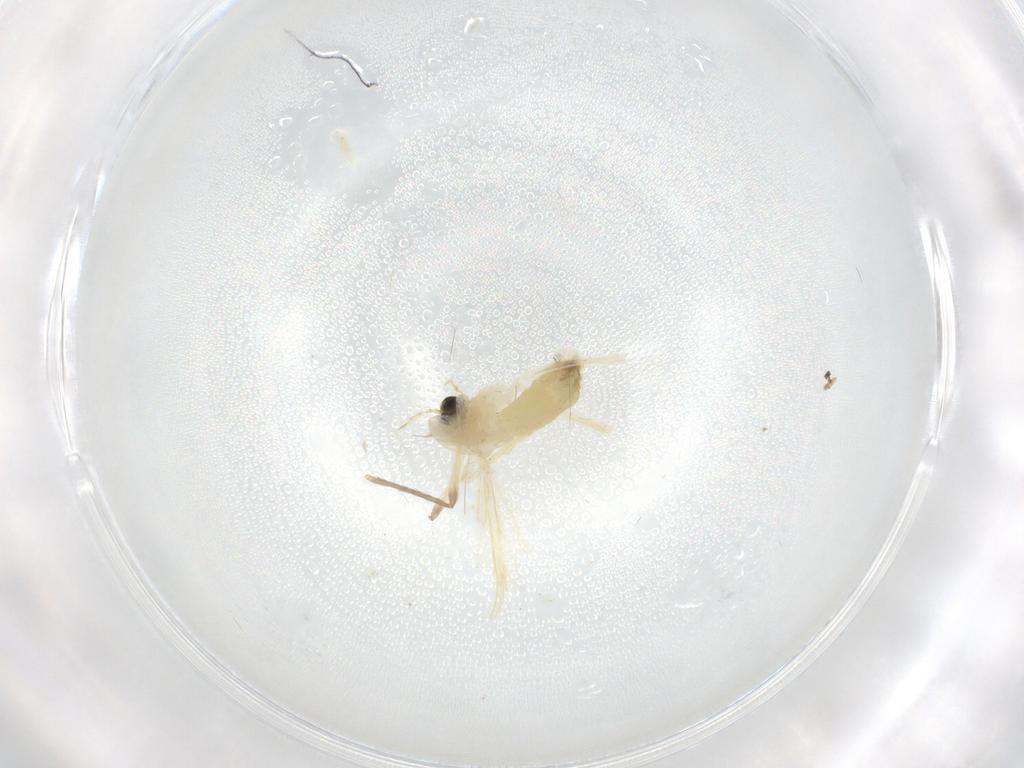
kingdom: Animalia
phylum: Arthropoda
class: Insecta
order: Diptera
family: Chironomidae
